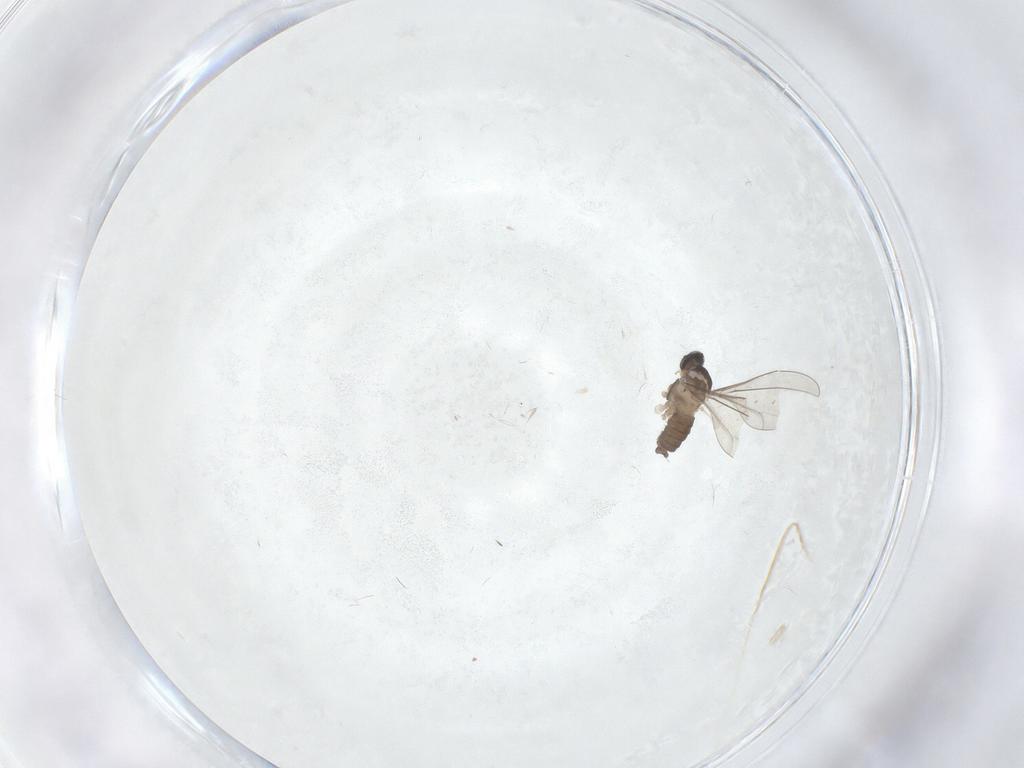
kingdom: Animalia
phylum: Arthropoda
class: Insecta
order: Diptera
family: Cecidomyiidae
